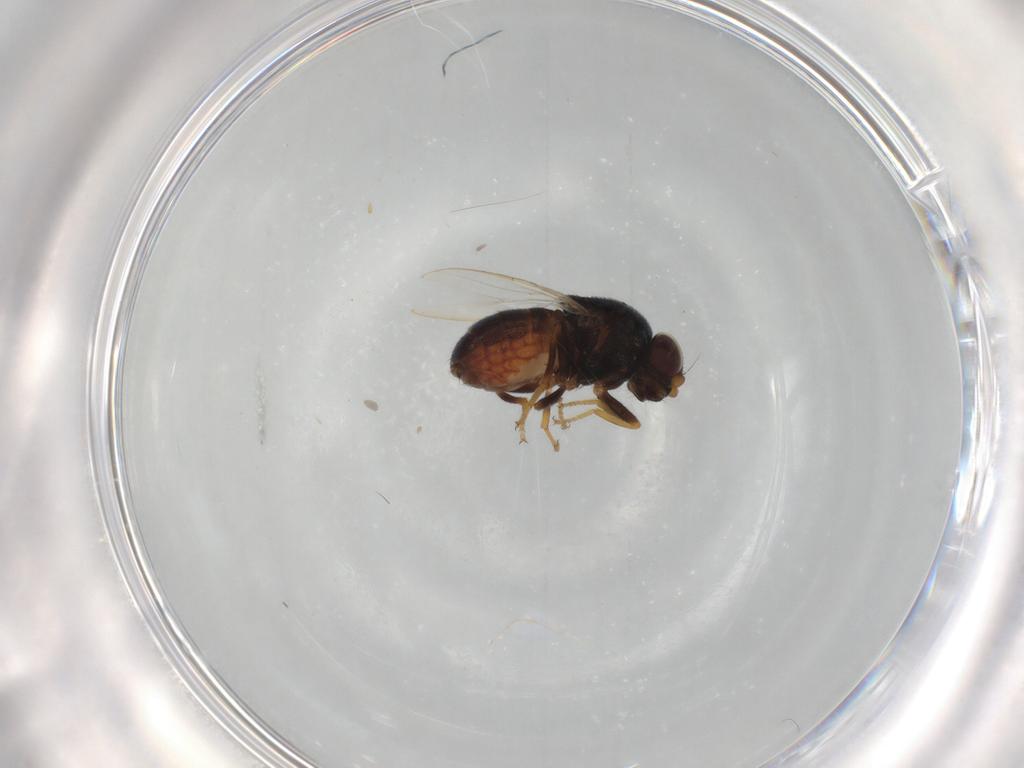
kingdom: Animalia
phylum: Arthropoda
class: Insecta
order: Diptera
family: Chloropidae
